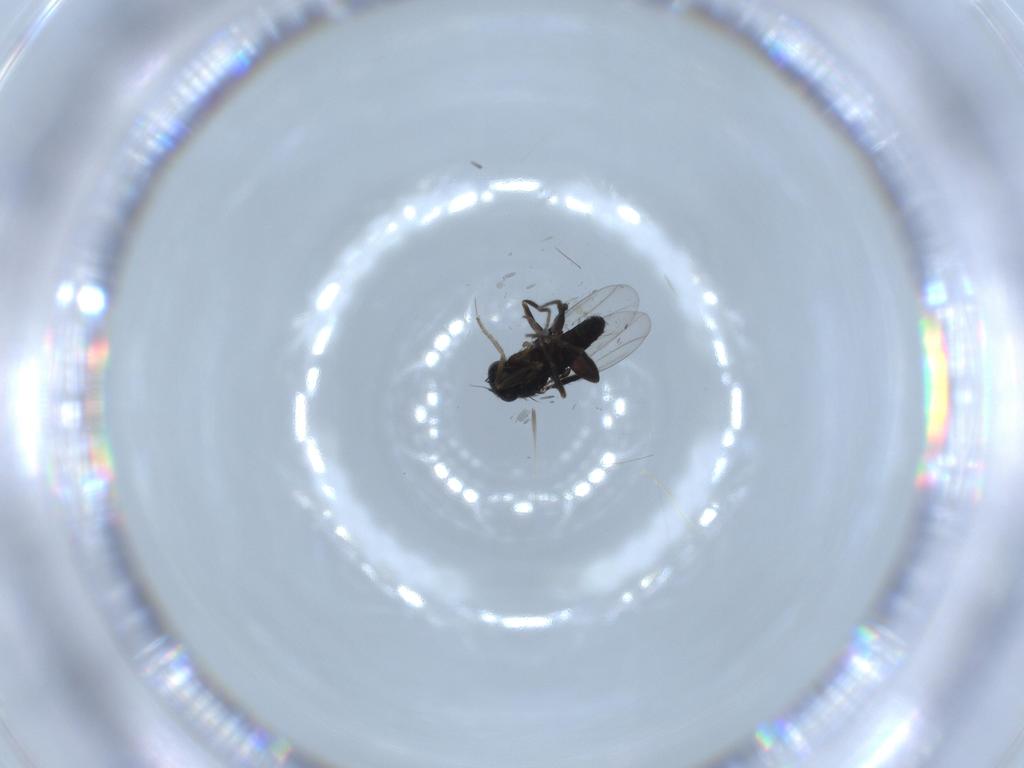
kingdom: Animalia
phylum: Arthropoda
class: Insecta
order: Diptera
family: Phoridae
